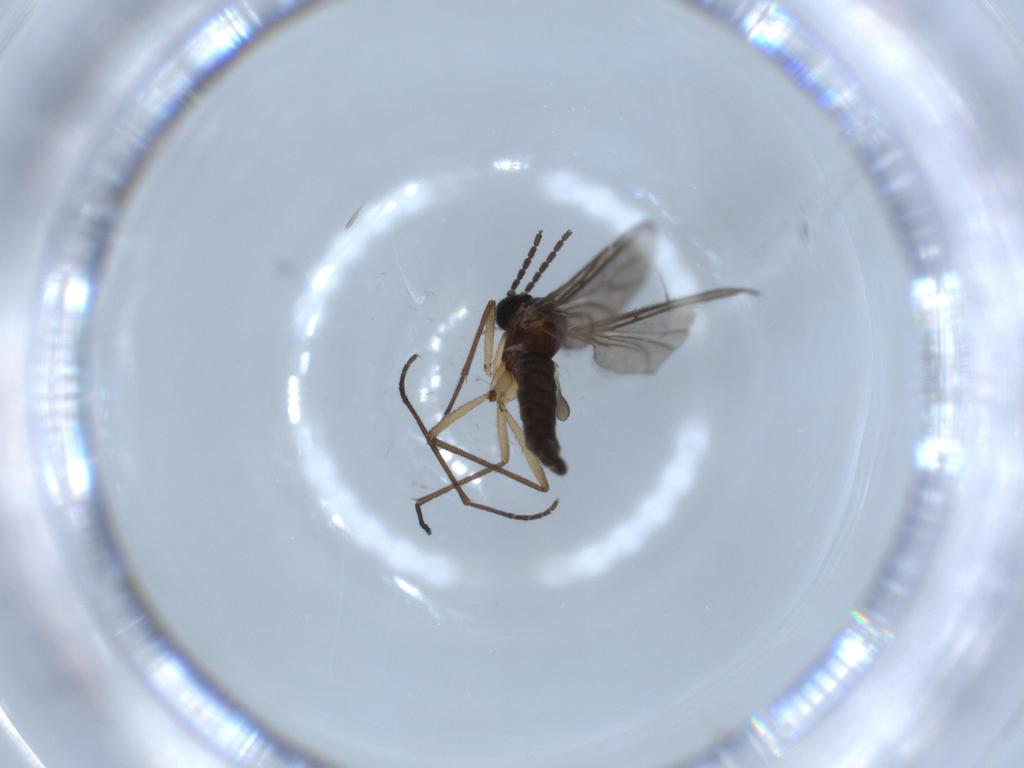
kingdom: Animalia
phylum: Arthropoda
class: Insecta
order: Diptera
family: Sciaridae
